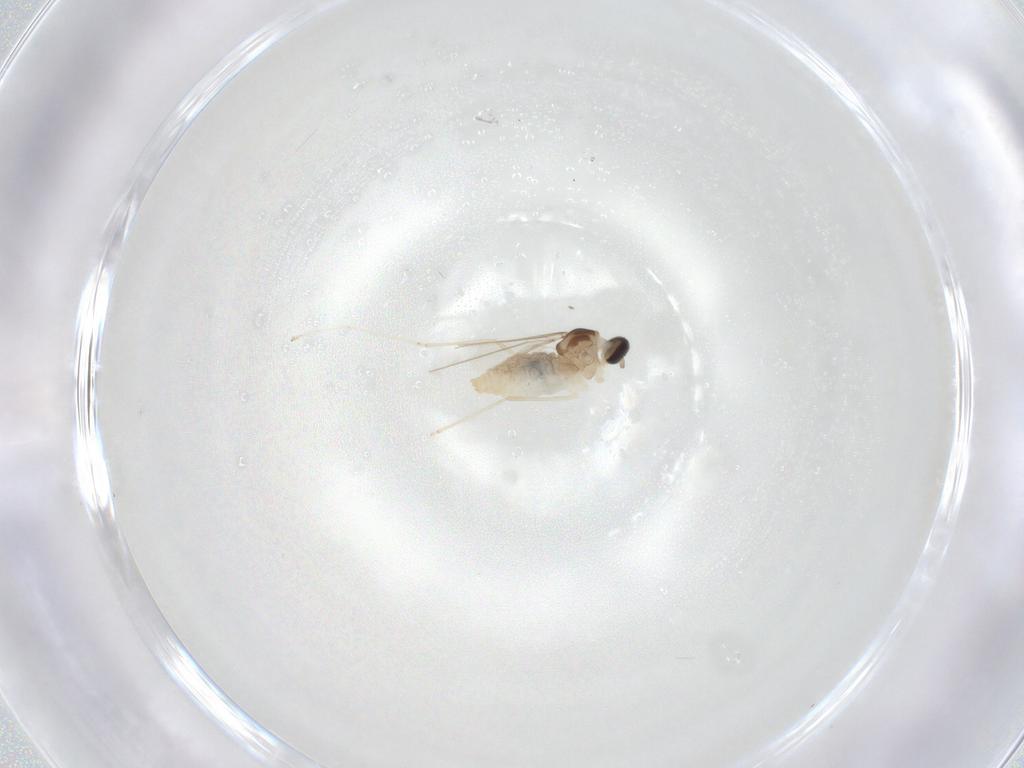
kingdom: Animalia
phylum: Arthropoda
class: Insecta
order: Diptera
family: Cecidomyiidae
